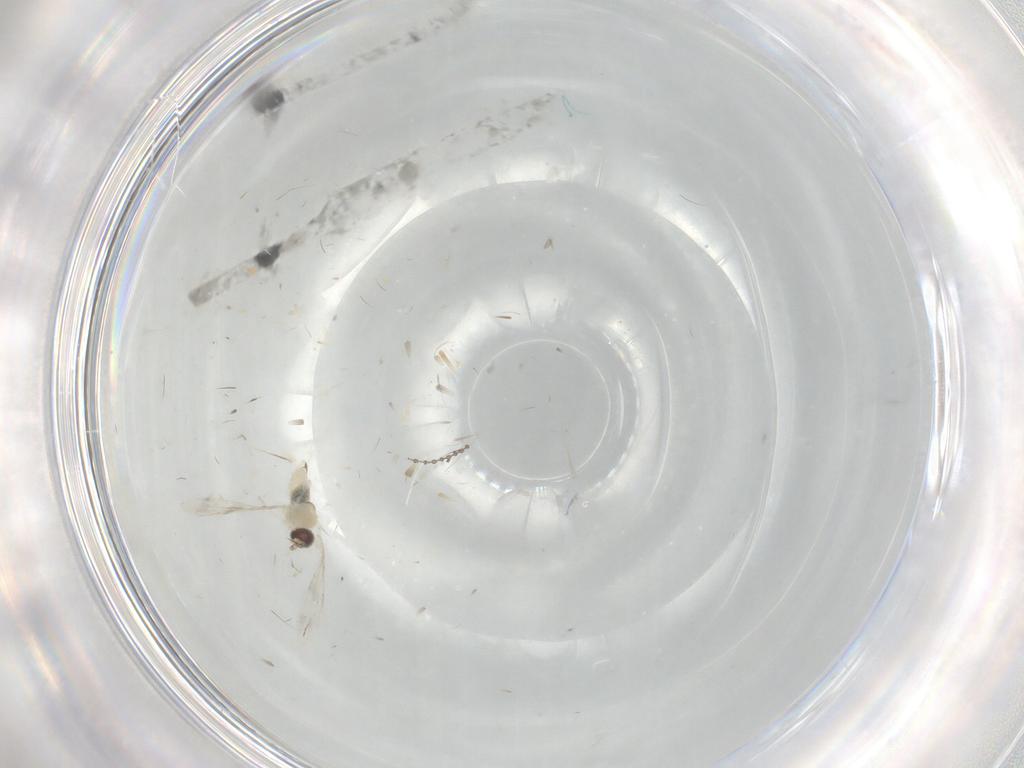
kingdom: Animalia
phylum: Arthropoda
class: Insecta
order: Diptera
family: Cecidomyiidae
